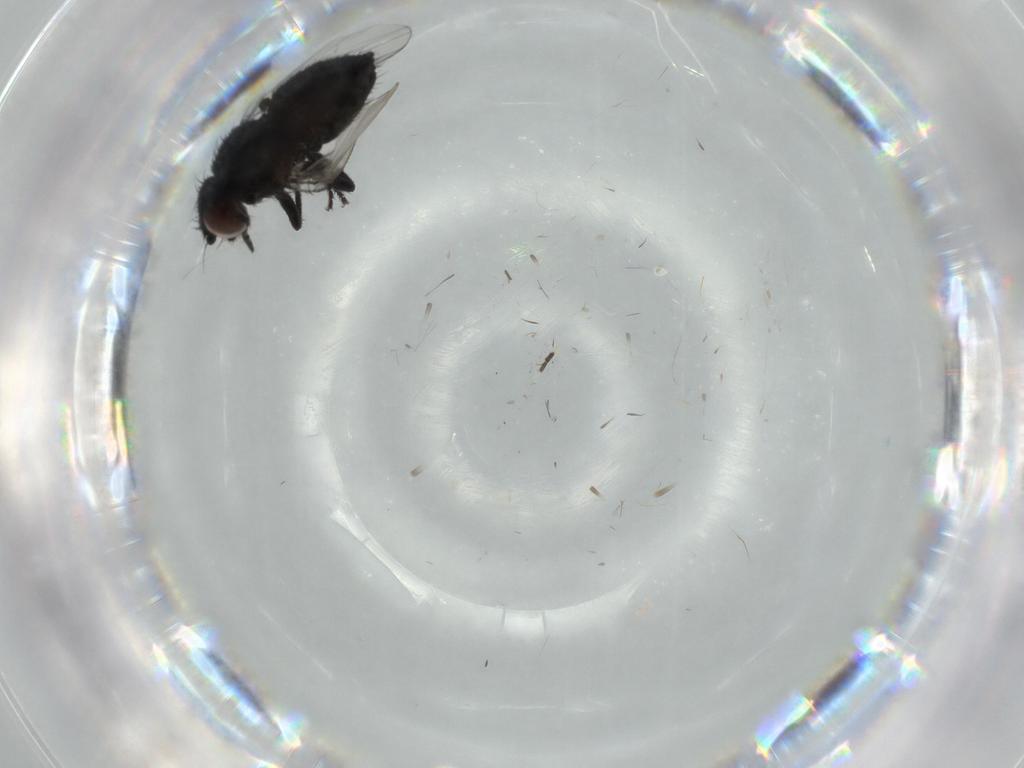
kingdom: Animalia
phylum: Arthropoda
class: Insecta
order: Diptera
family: Milichiidae
